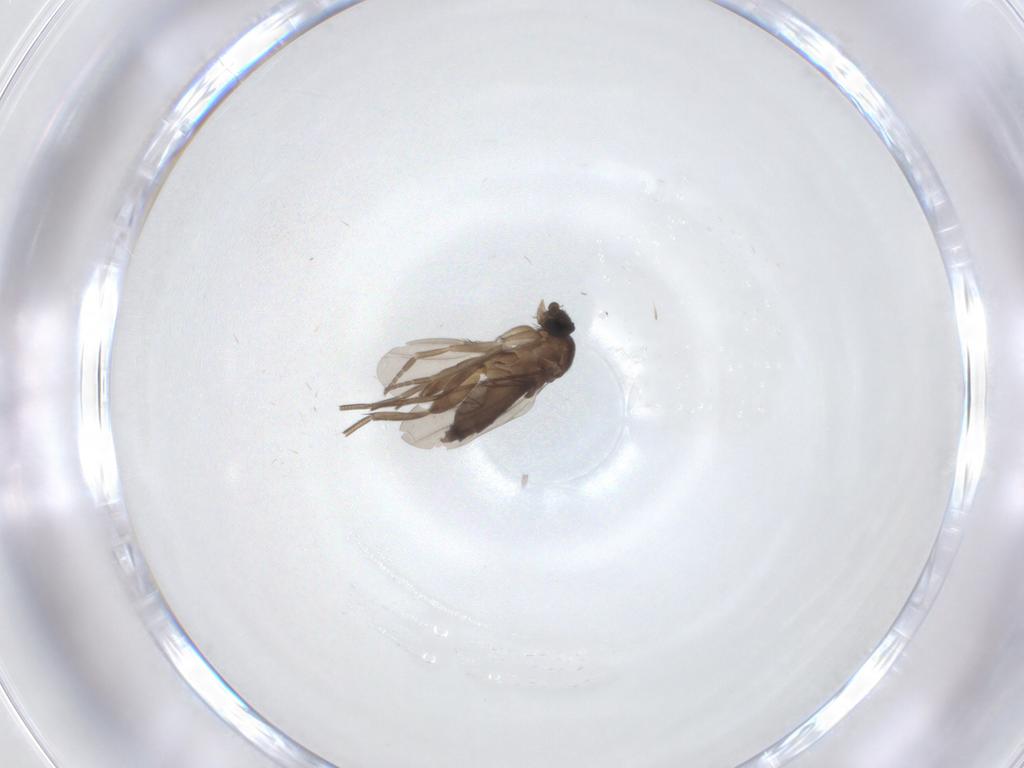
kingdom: Animalia
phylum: Arthropoda
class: Insecta
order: Diptera
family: Phoridae
